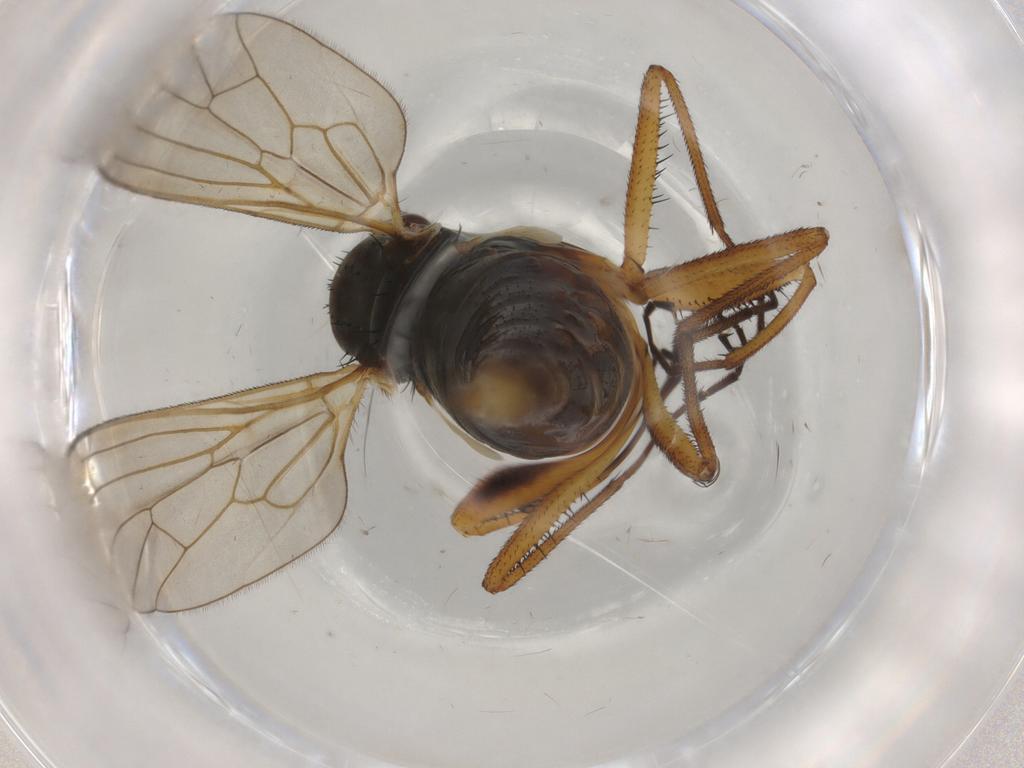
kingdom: Animalia
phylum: Arthropoda
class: Insecta
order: Diptera
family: Empididae
